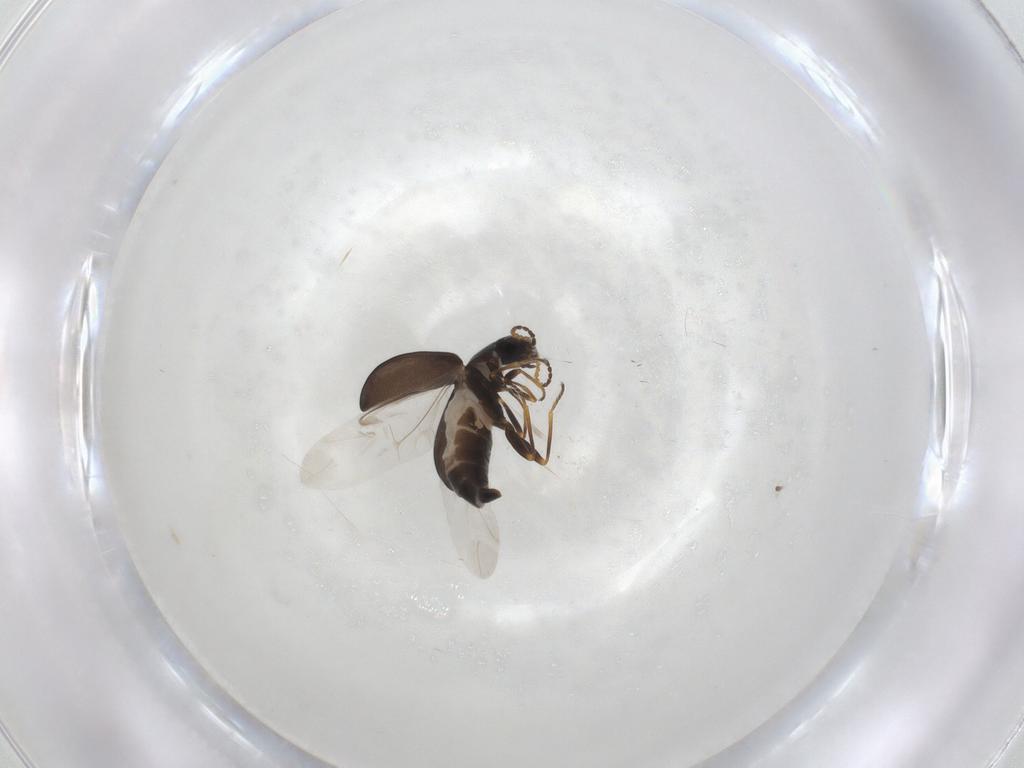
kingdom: Animalia
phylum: Arthropoda
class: Insecta
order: Coleoptera
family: Melyridae
